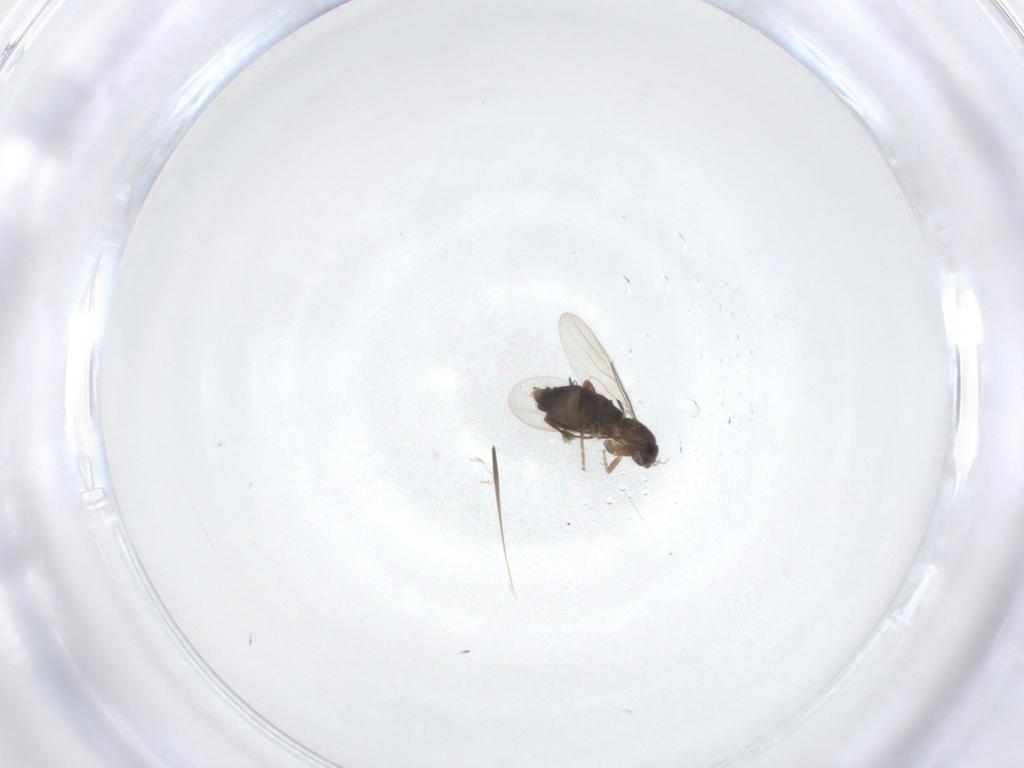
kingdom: Animalia
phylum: Arthropoda
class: Insecta
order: Diptera
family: Phoridae
